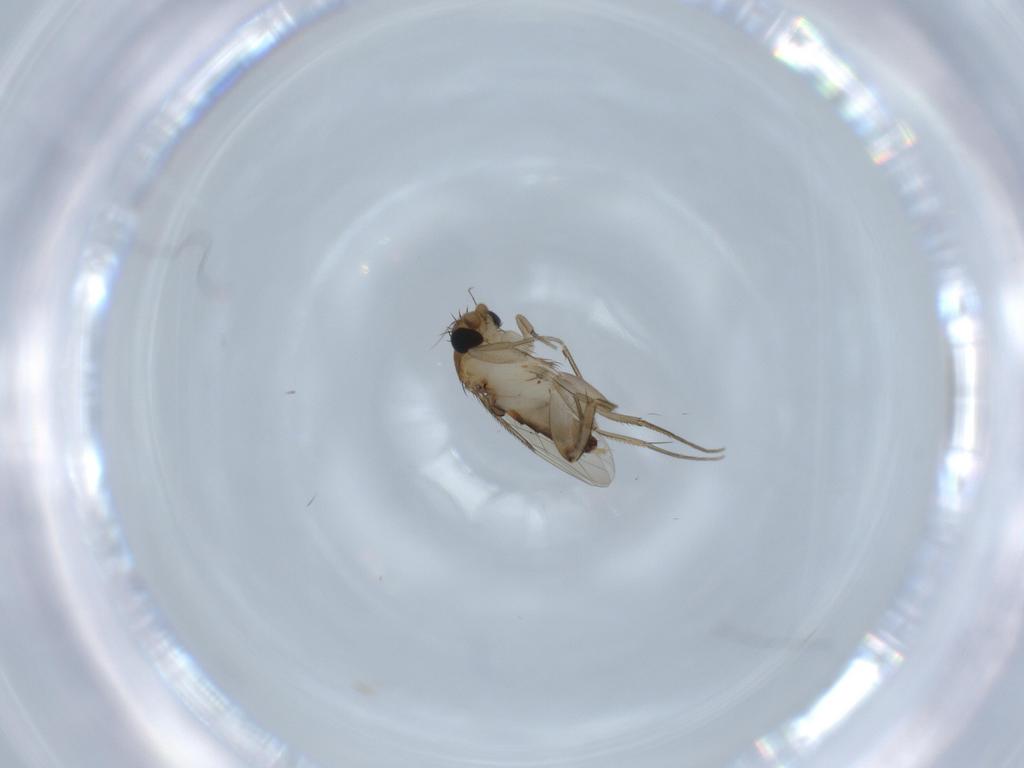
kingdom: Animalia
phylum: Arthropoda
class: Insecta
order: Diptera
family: Phoridae
